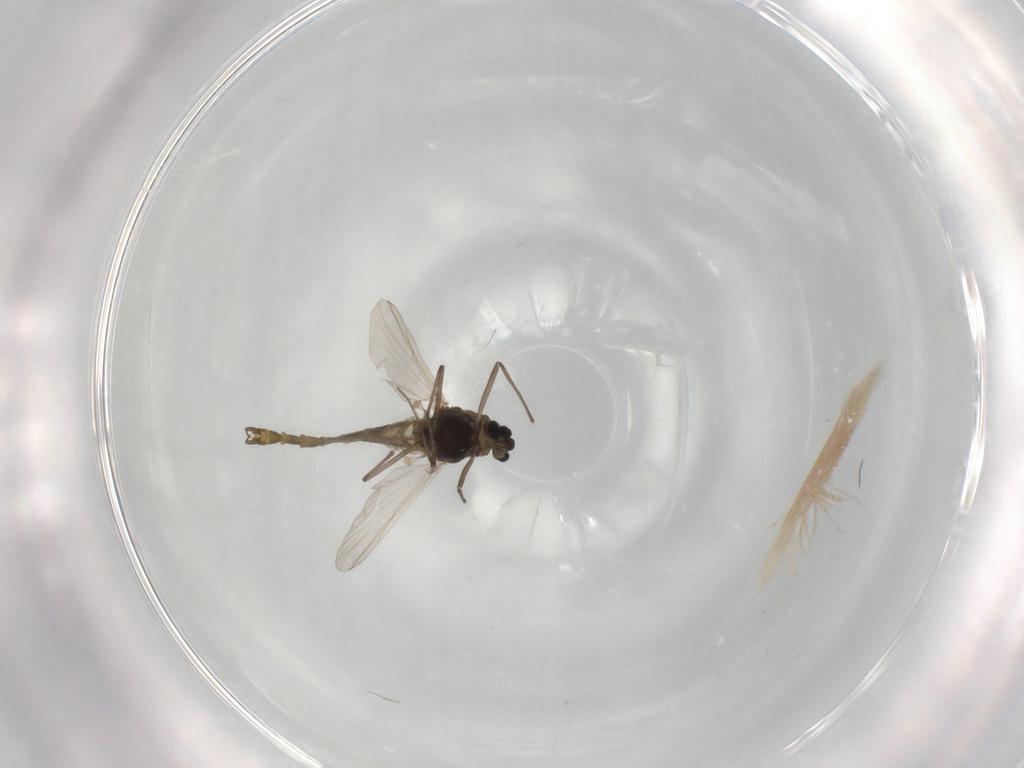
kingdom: Animalia
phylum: Arthropoda
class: Insecta
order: Diptera
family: Chironomidae
